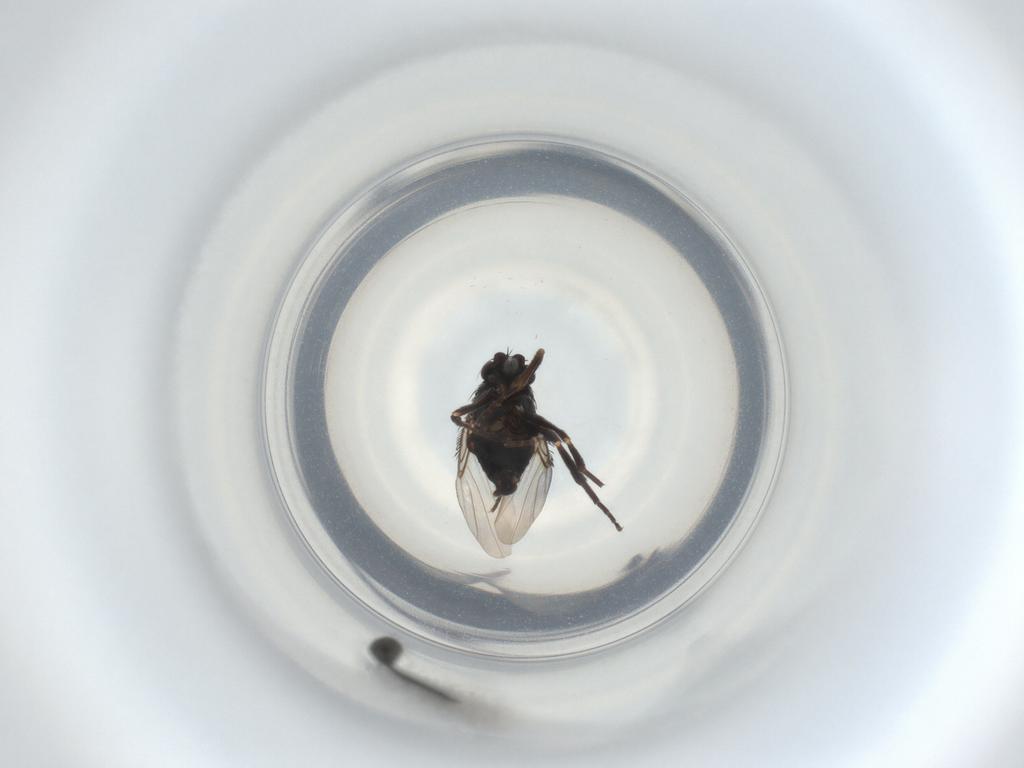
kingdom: Animalia
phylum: Arthropoda
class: Insecta
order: Diptera
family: Phoridae
